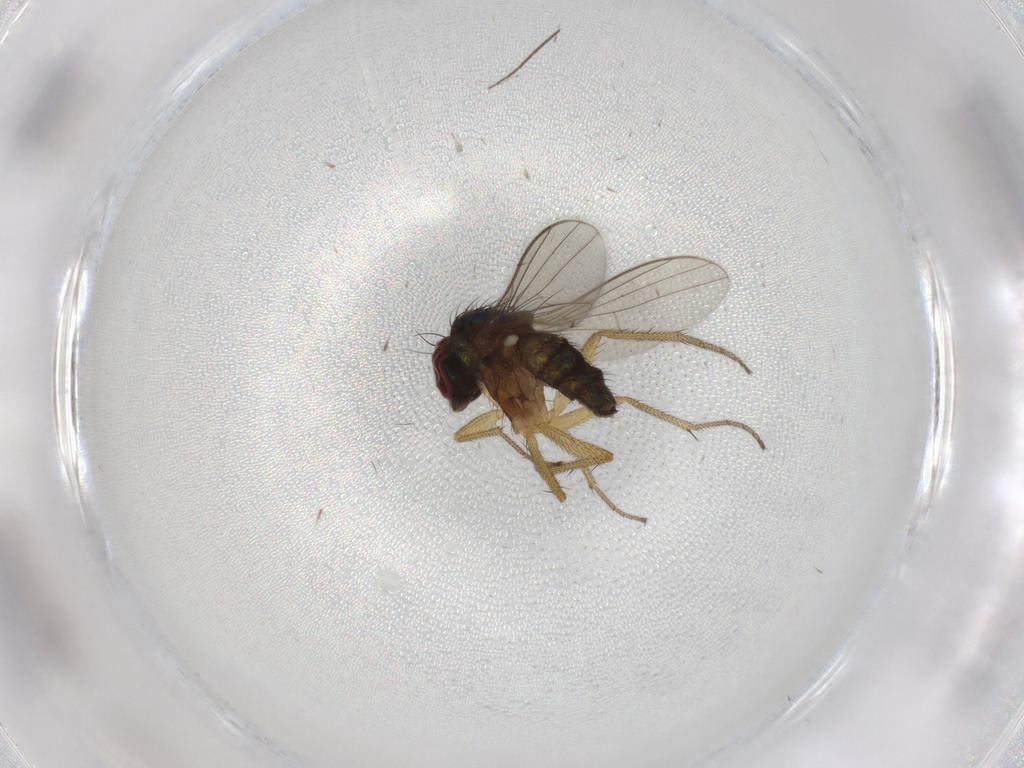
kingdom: Animalia
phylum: Arthropoda
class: Insecta
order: Diptera
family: Dolichopodidae
